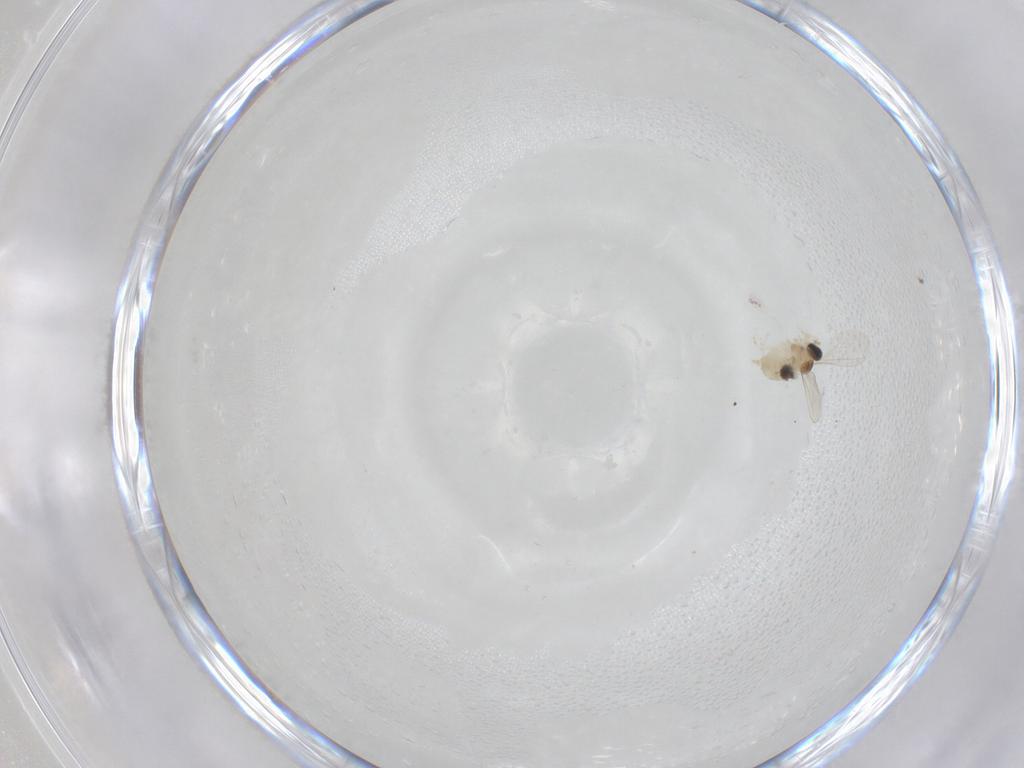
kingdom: Animalia
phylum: Arthropoda
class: Insecta
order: Diptera
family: Cecidomyiidae
